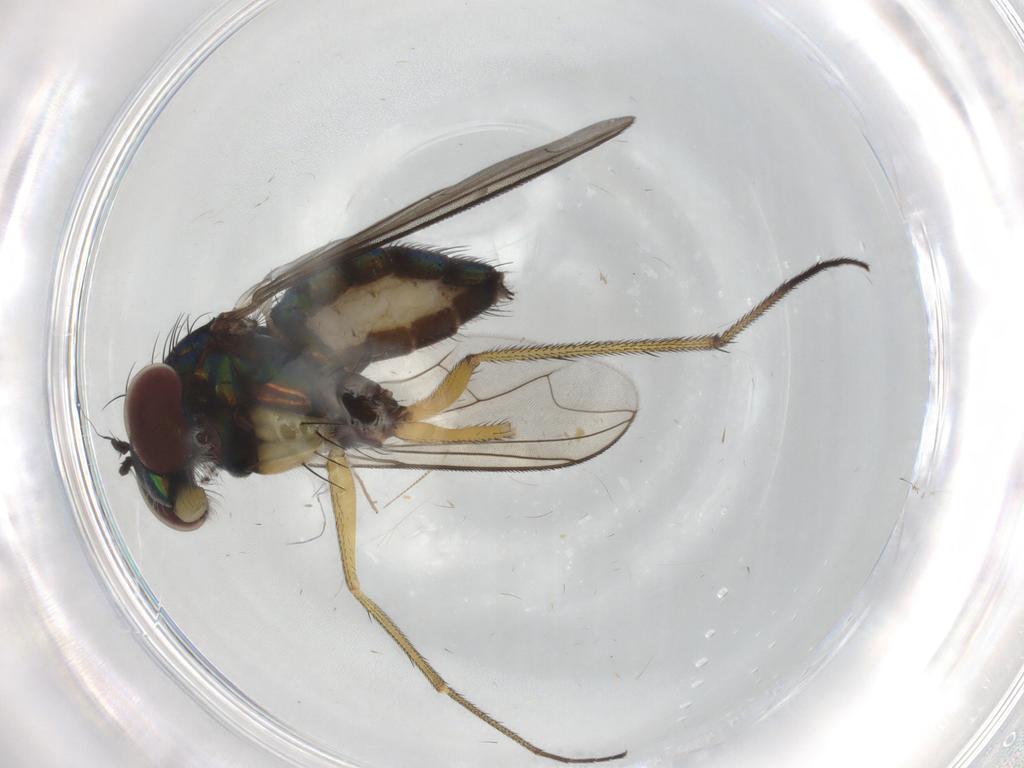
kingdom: Animalia
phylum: Arthropoda
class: Insecta
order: Diptera
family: Dolichopodidae
